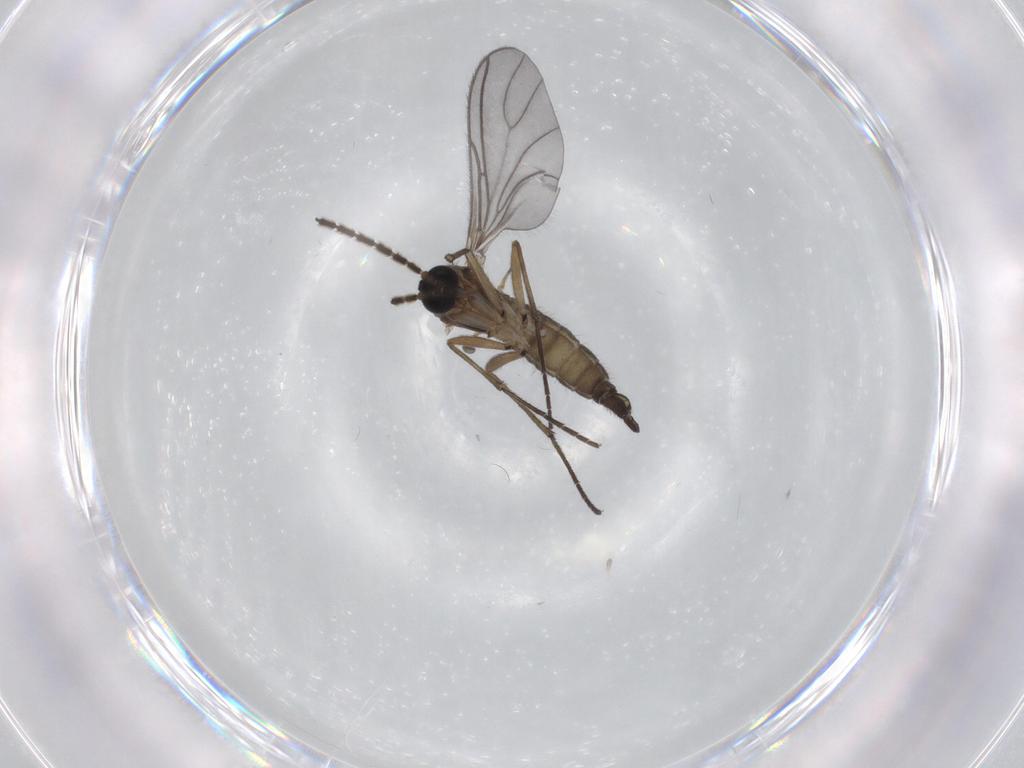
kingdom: Animalia
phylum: Arthropoda
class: Insecta
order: Diptera
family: Sciaridae
